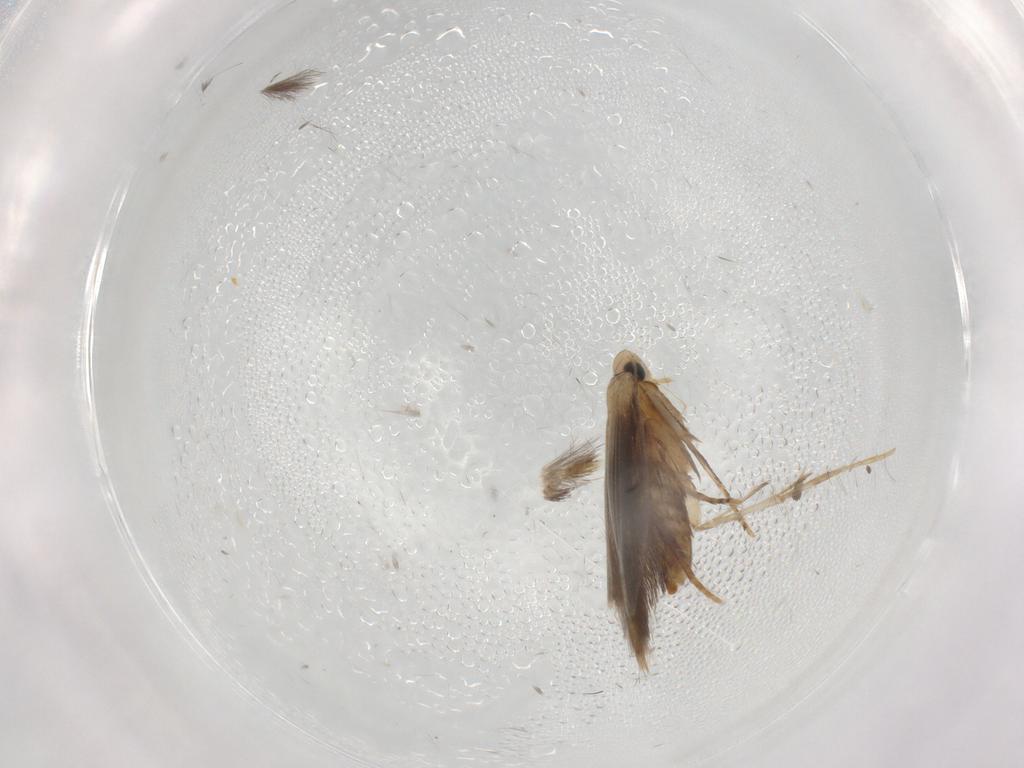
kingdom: Animalia
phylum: Arthropoda
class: Insecta
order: Lepidoptera
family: Tischeriidae
